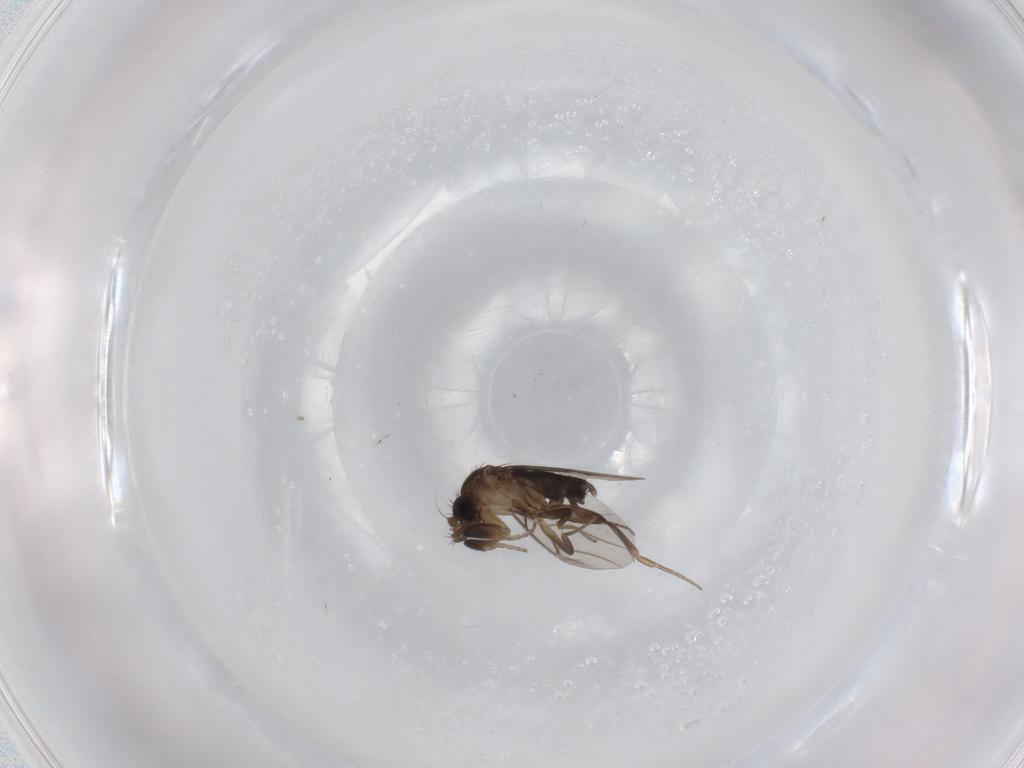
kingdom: Animalia
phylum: Arthropoda
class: Insecta
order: Diptera
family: Phoridae
